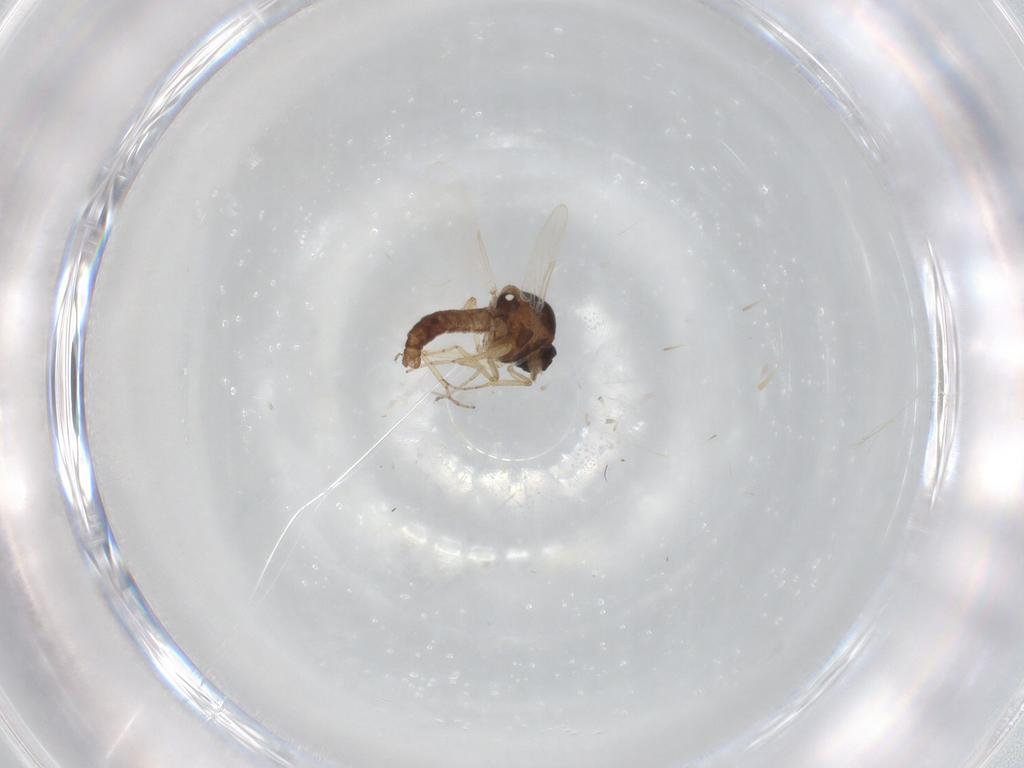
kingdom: Animalia
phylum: Arthropoda
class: Insecta
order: Diptera
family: Ceratopogonidae
